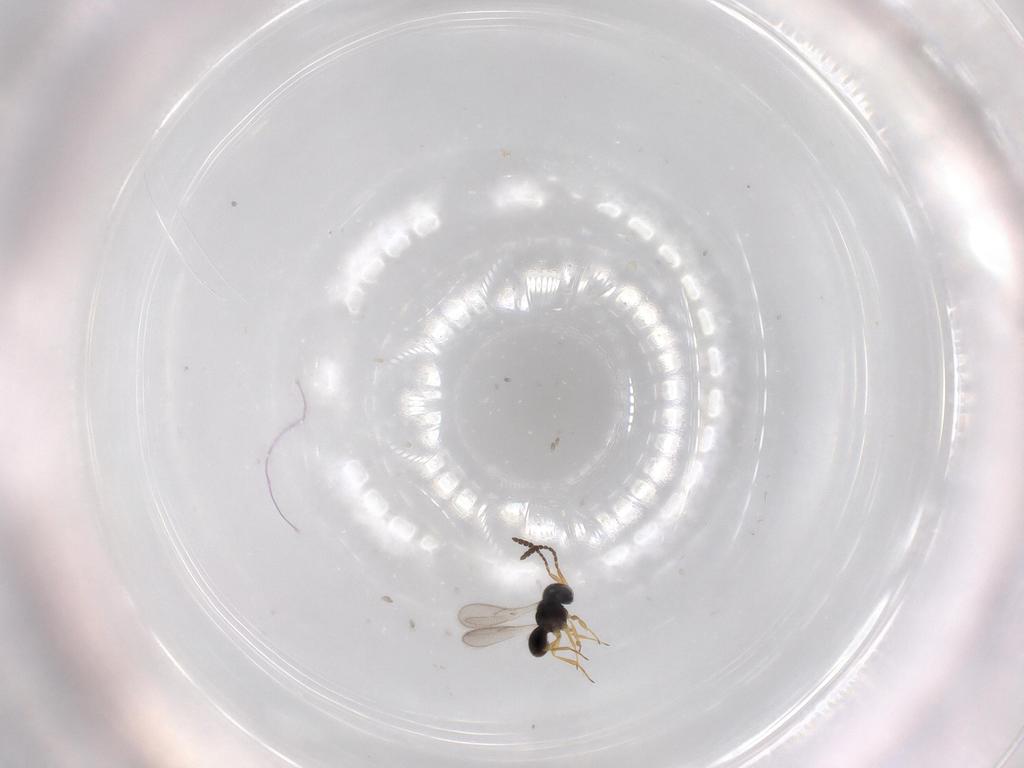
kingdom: Animalia
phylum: Arthropoda
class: Insecta
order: Hymenoptera
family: Scelionidae
